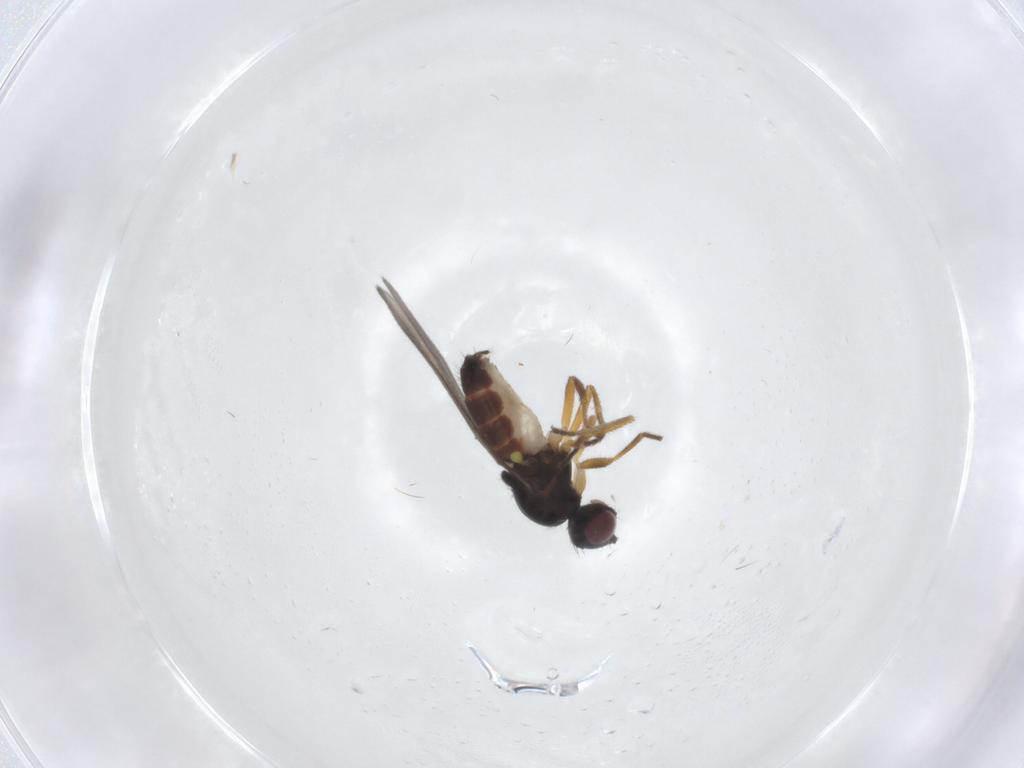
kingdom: Animalia
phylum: Arthropoda
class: Insecta
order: Diptera
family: Chloropidae
